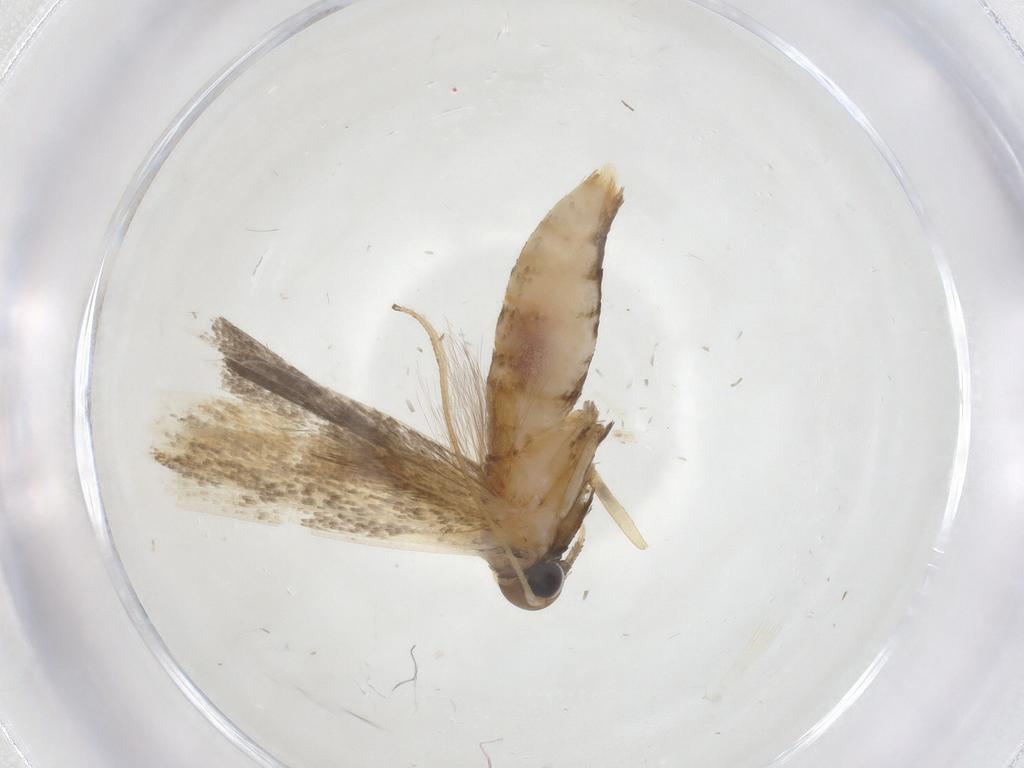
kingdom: Animalia
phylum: Arthropoda
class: Insecta
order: Lepidoptera
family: Gelechiidae
